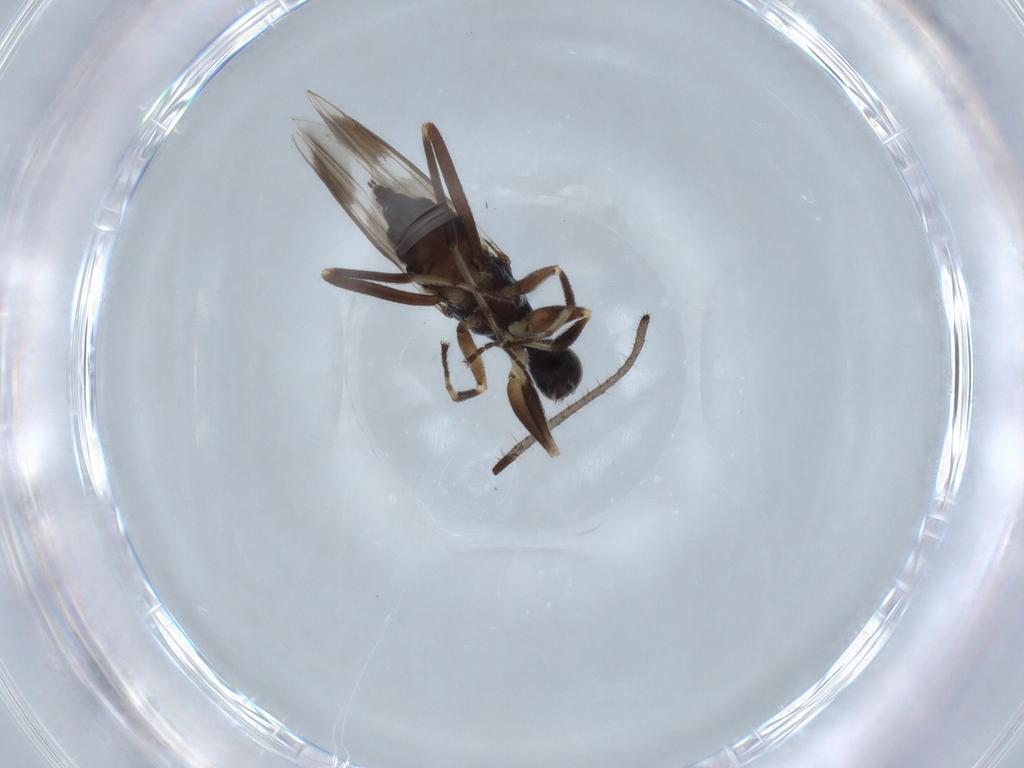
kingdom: Animalia
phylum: Arthropoda
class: Insecta
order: Diptera
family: Hybotidae
